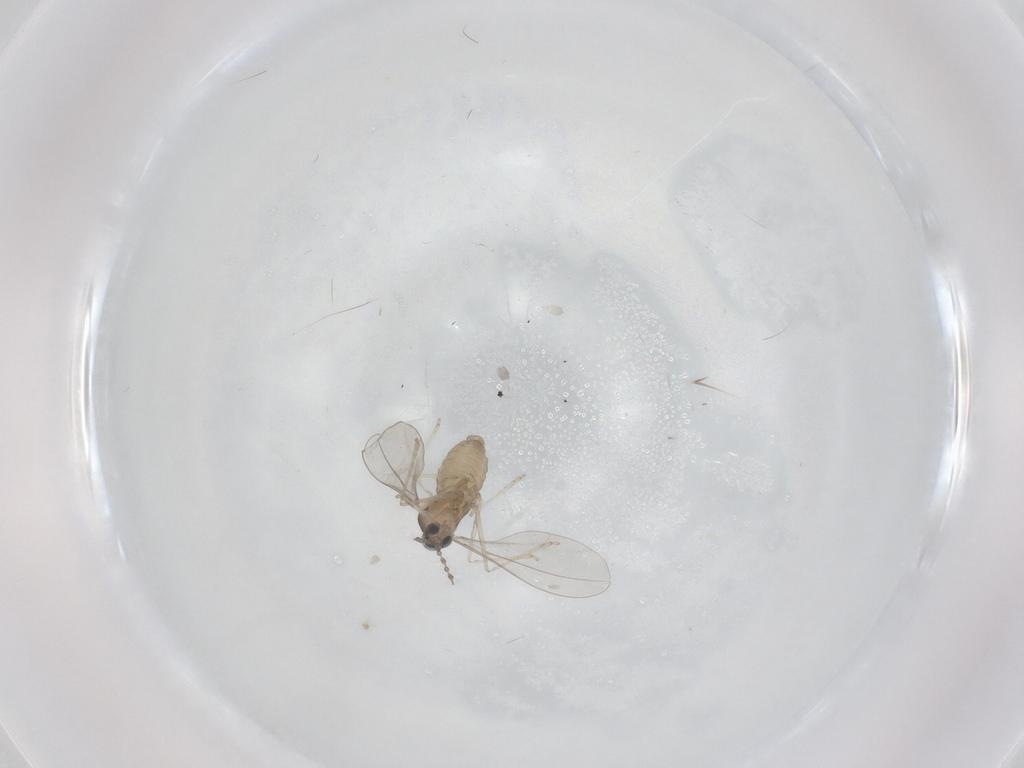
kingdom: Animalia
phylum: Arthropoda
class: Insecta
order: Diptera
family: Cecidomyiidae
